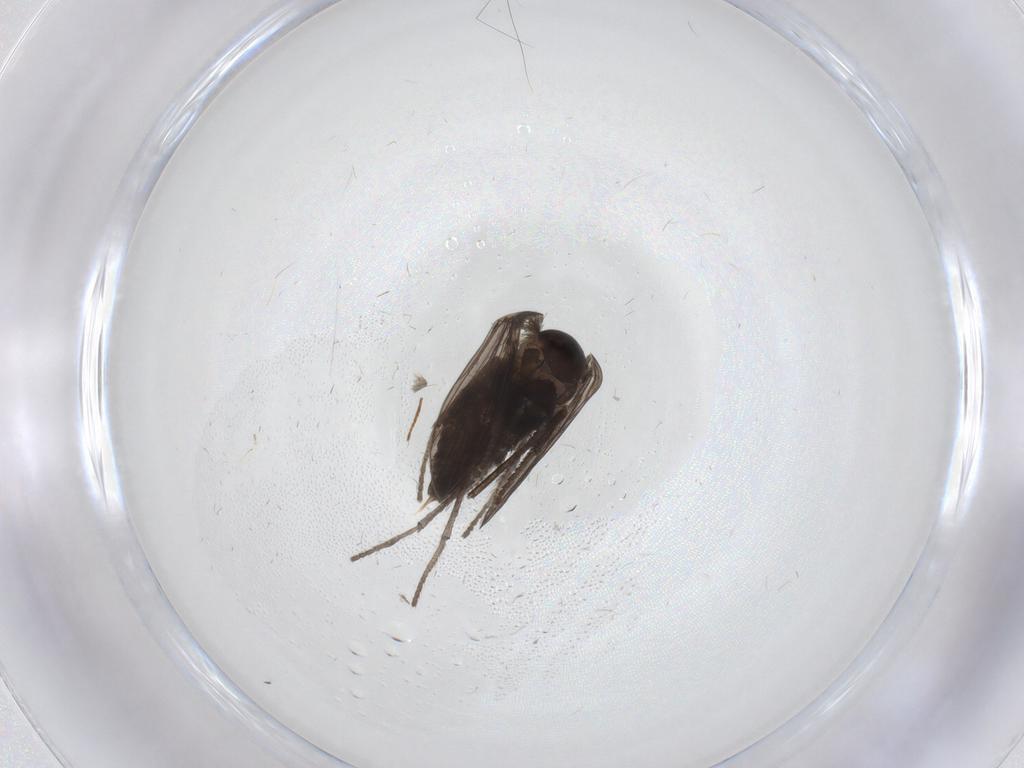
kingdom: Animalia
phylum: Arthropoda
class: Insecta
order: Diptera
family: Psychodidae
